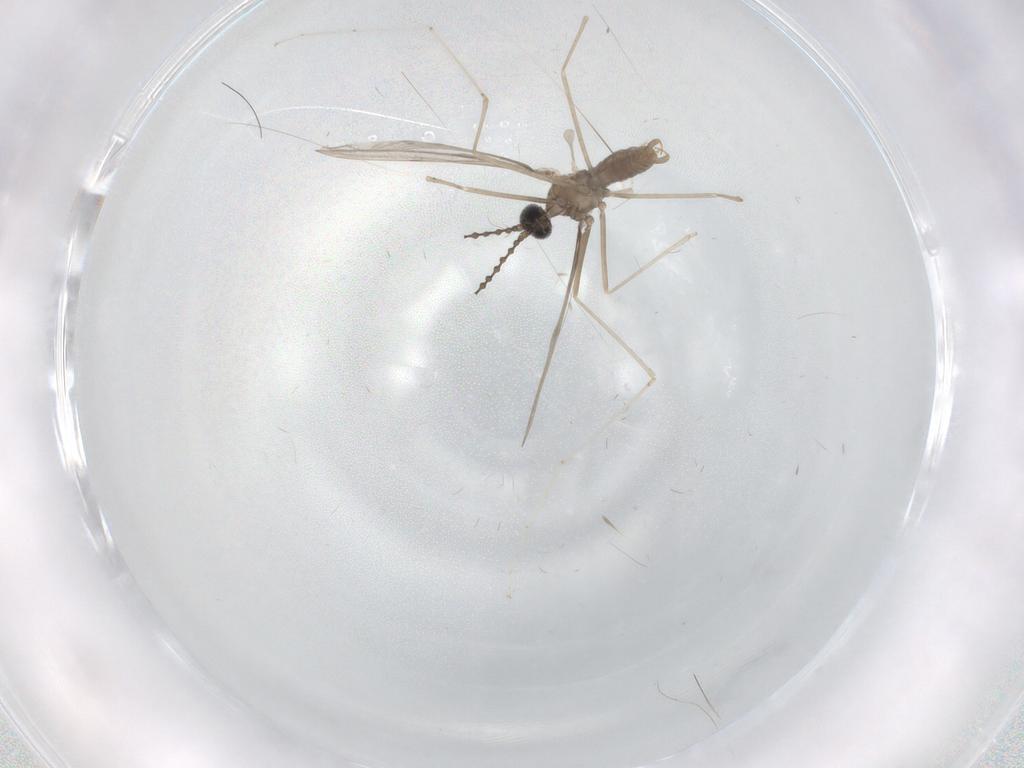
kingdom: Animalia
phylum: Arthropoda
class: Insecta
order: Diptera
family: Cecidomyiidae
